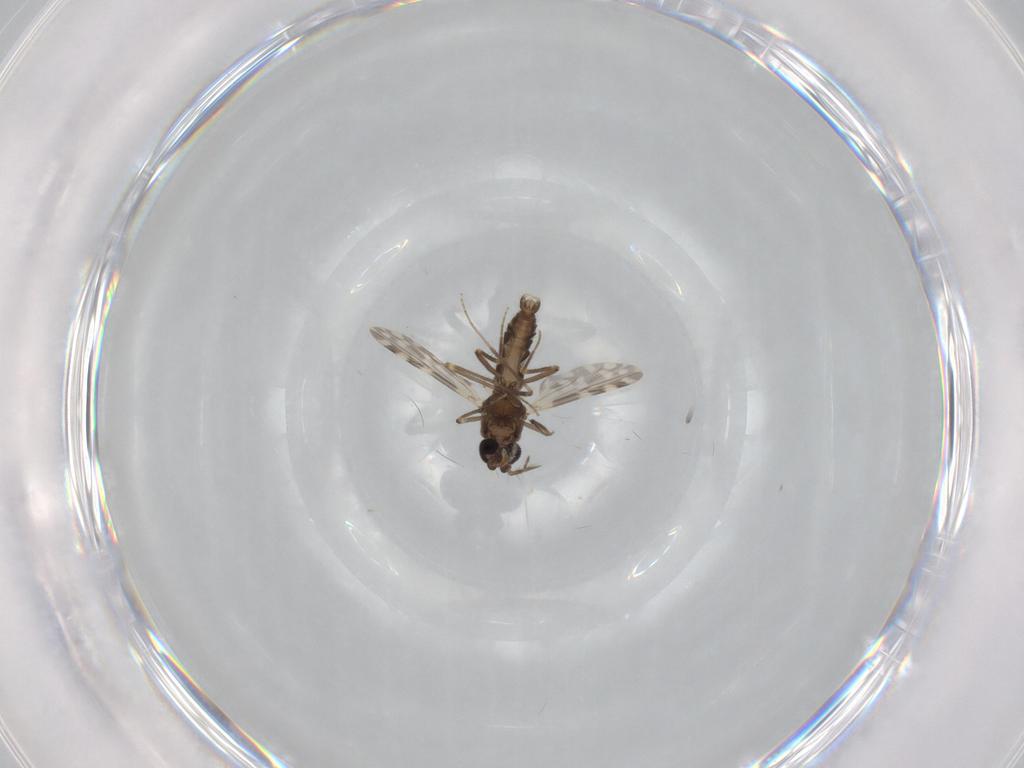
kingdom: Animalia
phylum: Arthropoda
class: Insecta
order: Diptera
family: Ceratopogonidae
